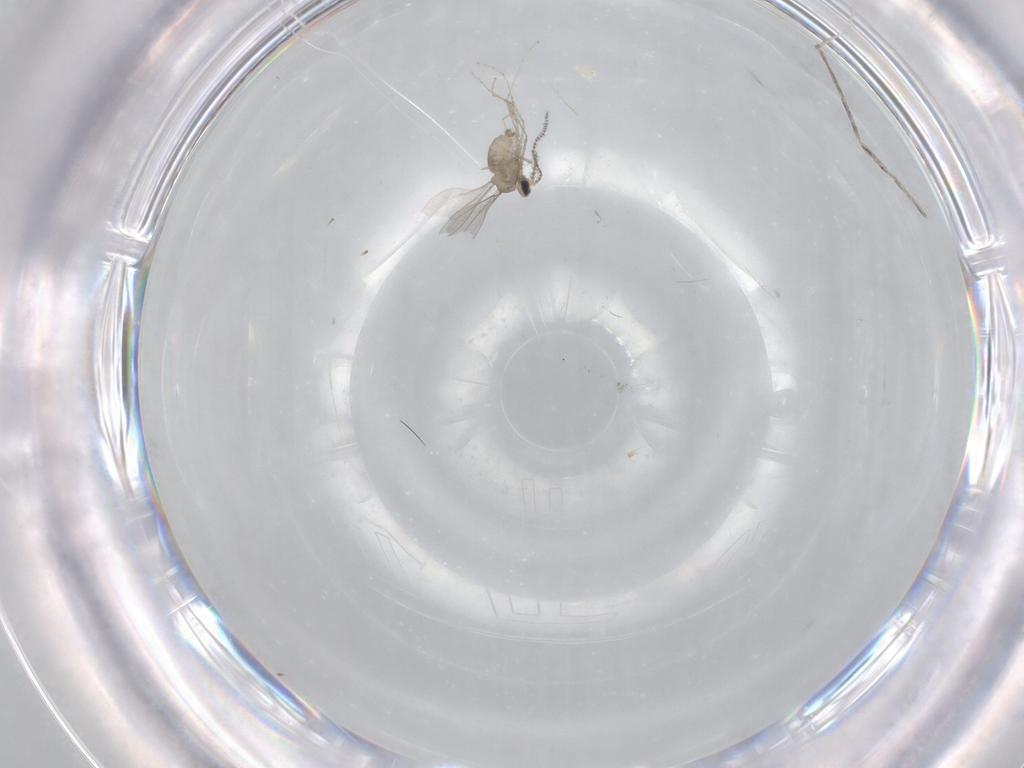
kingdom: Animalia
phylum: Arthropoda
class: Insecta
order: Diptera
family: Cecidomyiidae
